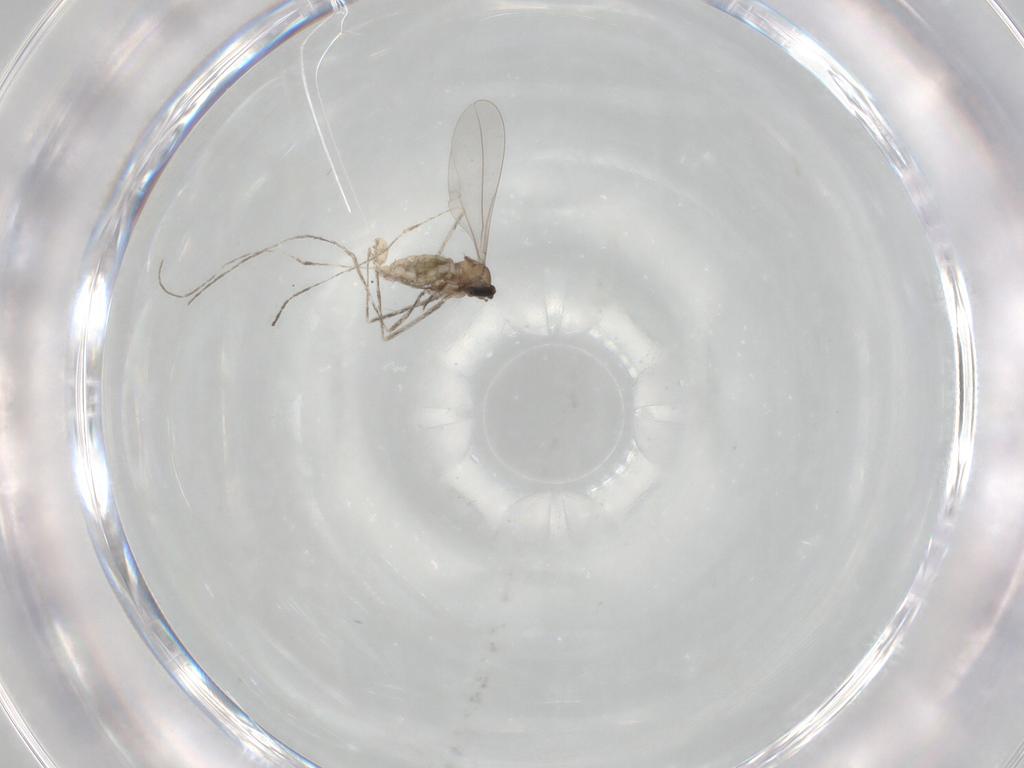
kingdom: Animalia
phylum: Arthropoda
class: Insecta
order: Diptera
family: Cecidomyiidae
